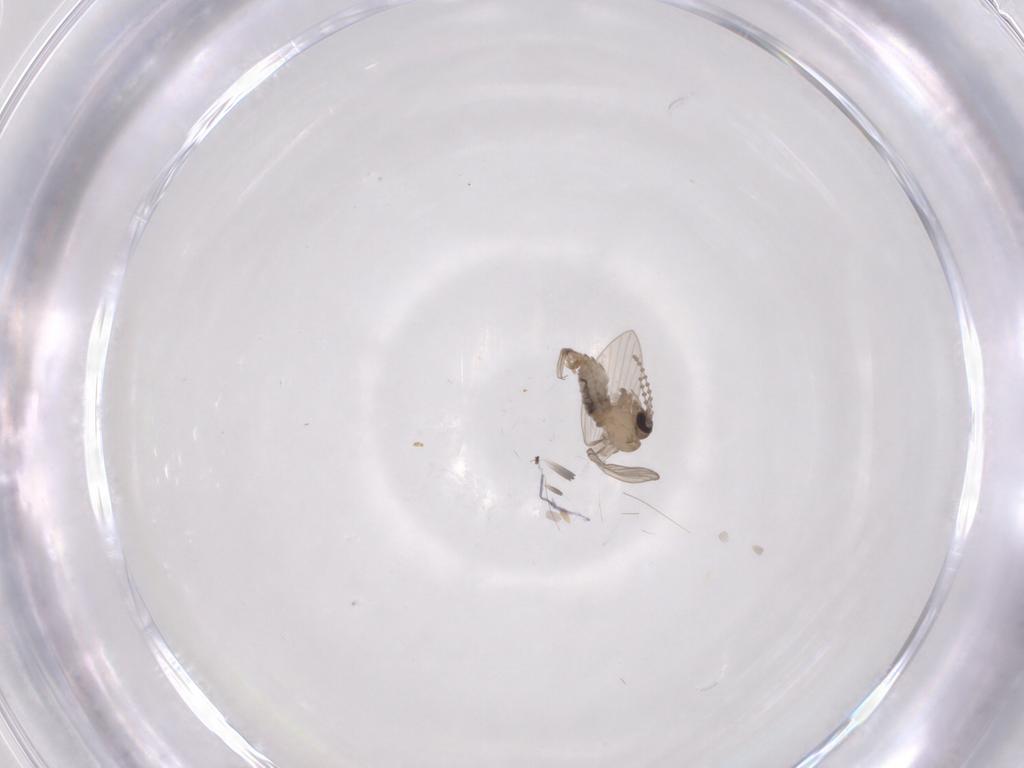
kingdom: Animalia
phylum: Arthropoda
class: Insecta
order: Diptera
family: Psychodidae
